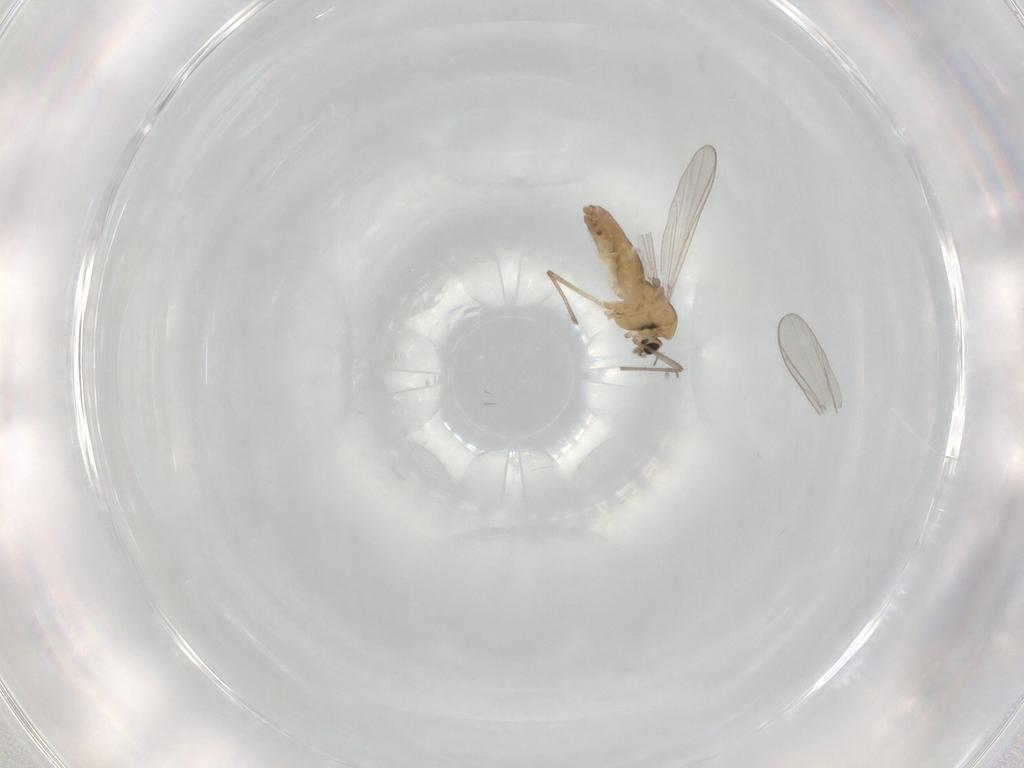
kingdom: Animalia
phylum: Arthropoda
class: Insecta
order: Diptera
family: Chironomidae
